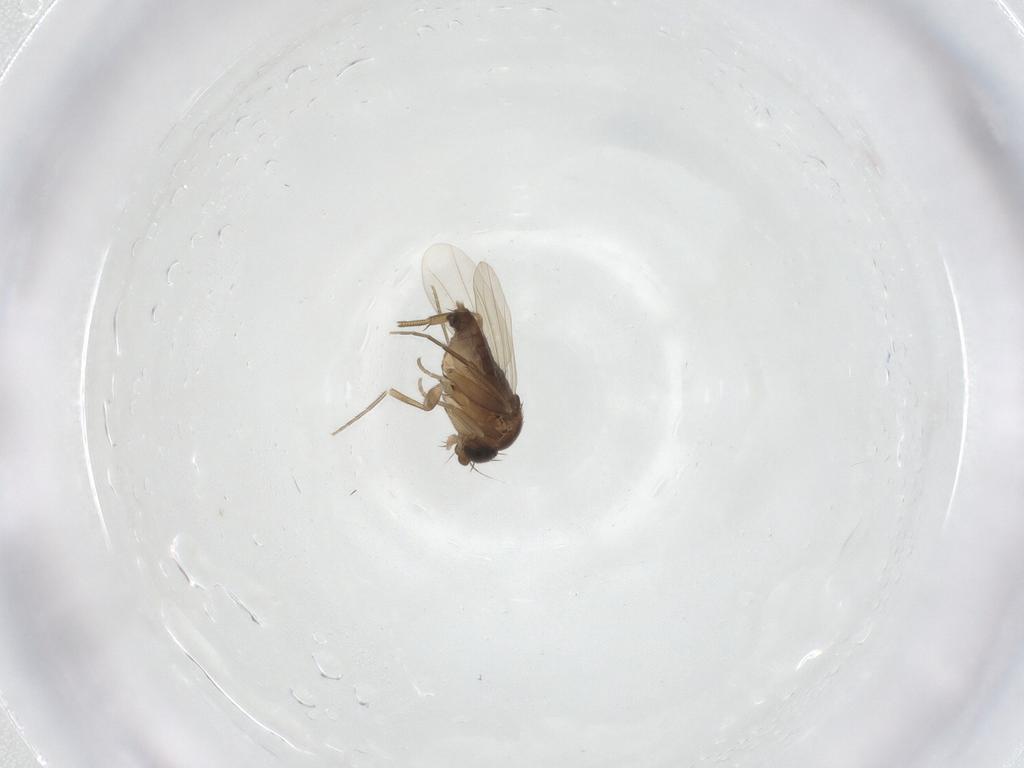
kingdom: Animalia
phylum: Arthropoda
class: Insecta
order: Diptera
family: Phoridae
